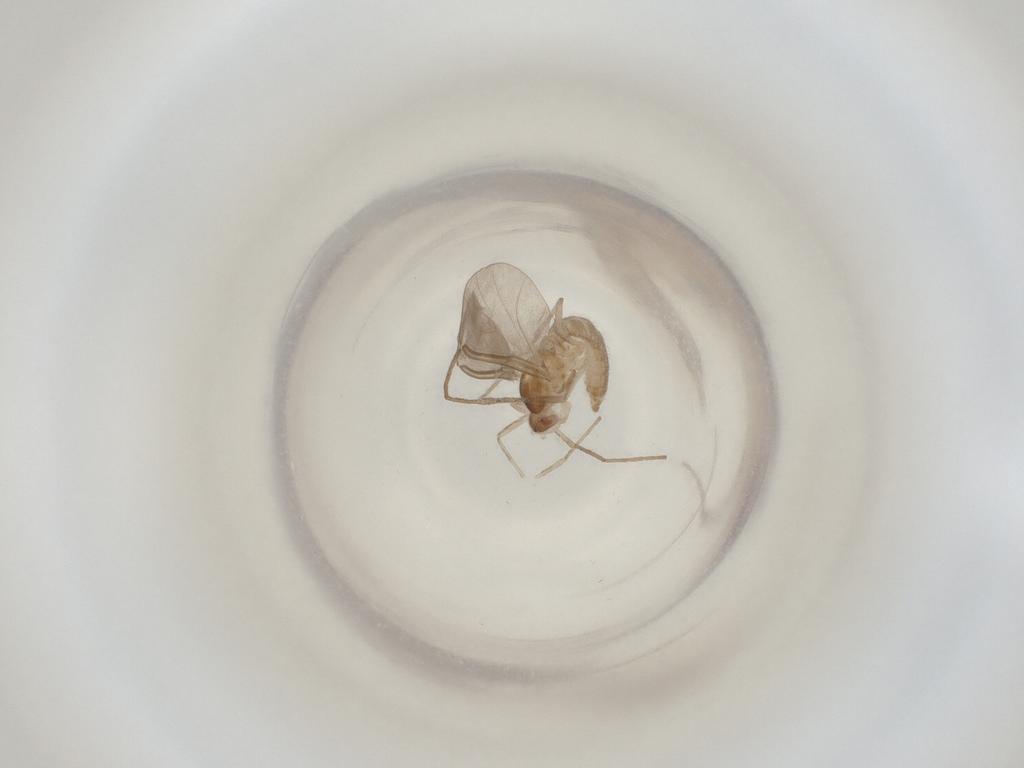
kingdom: Animalia
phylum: Arthropoda
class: Insecta
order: Diptera
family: Cecidomyiidae
